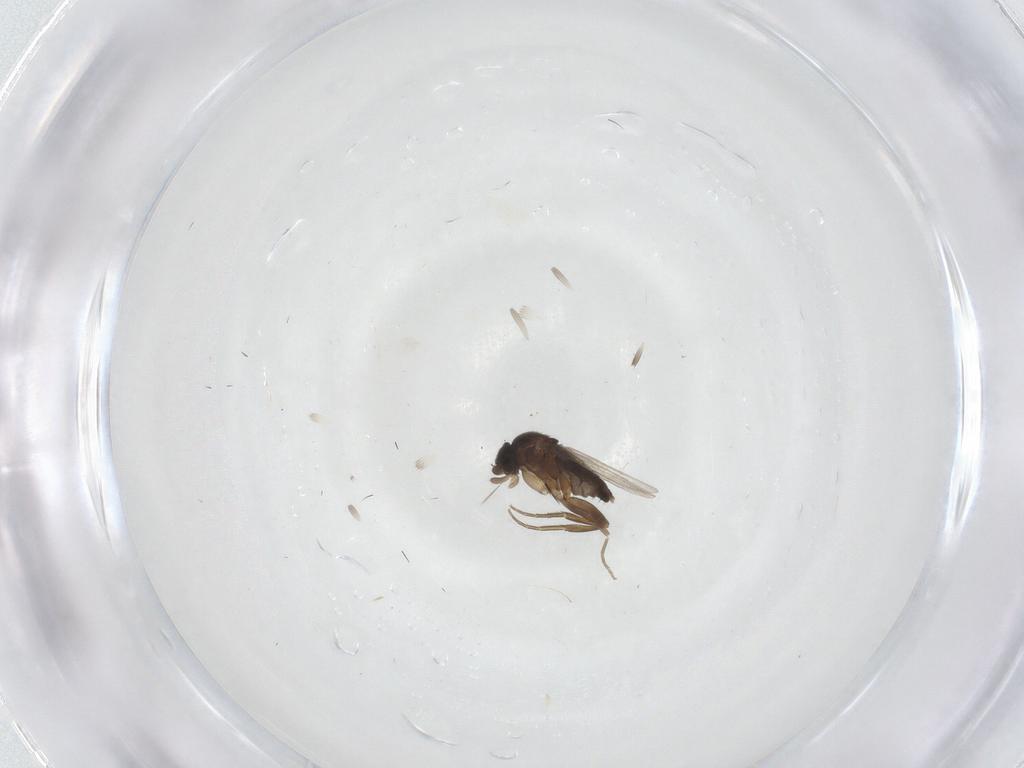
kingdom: Animalia
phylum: Arthropoda
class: Insecta
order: Diptera
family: Phoridae
